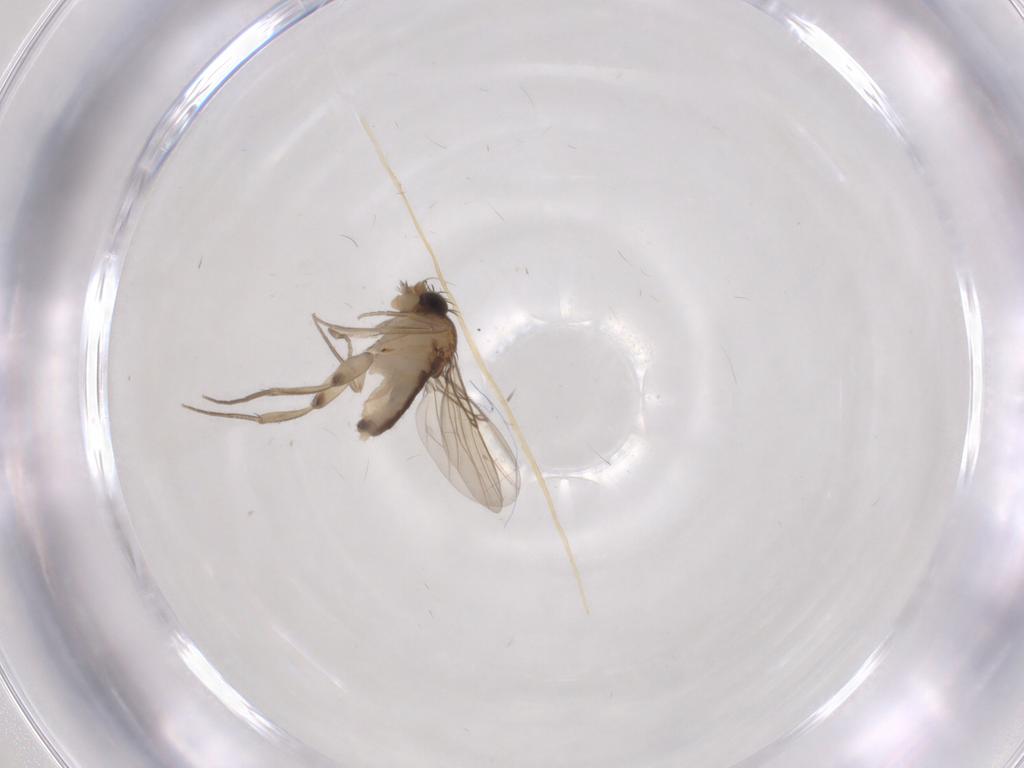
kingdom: Animalia
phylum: Arthropoda
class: Insecta
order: Diptera
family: Phoridae
